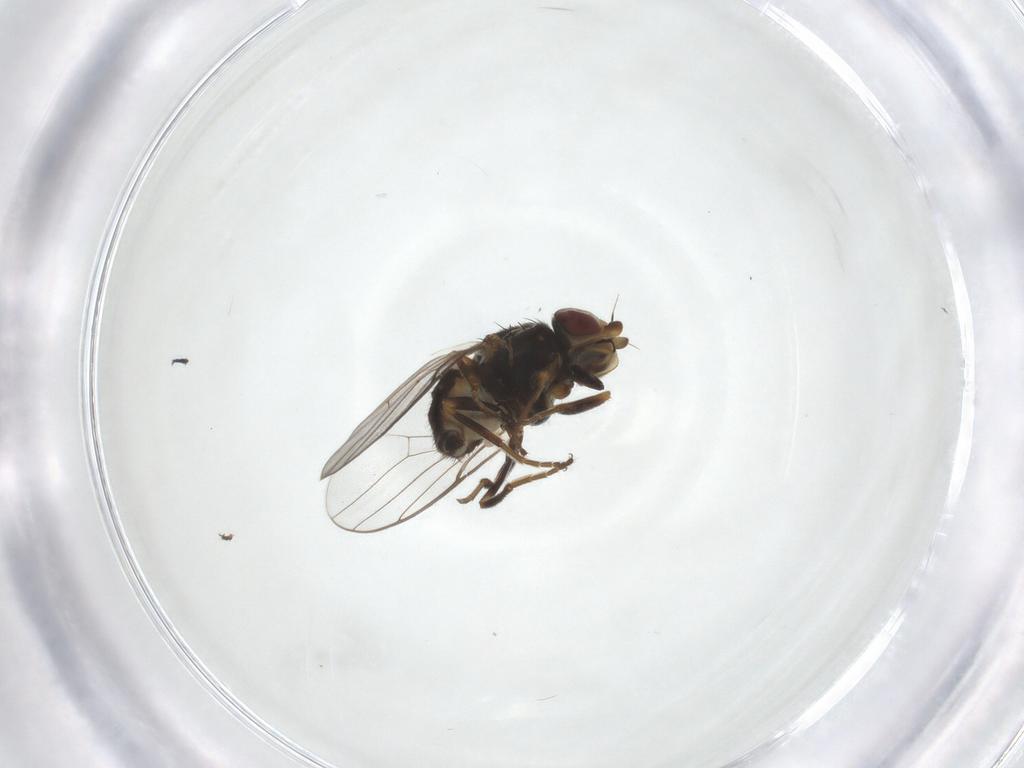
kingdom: Animalia
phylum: Arthropoda
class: Insecta
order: Diptera
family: Chloropidae
